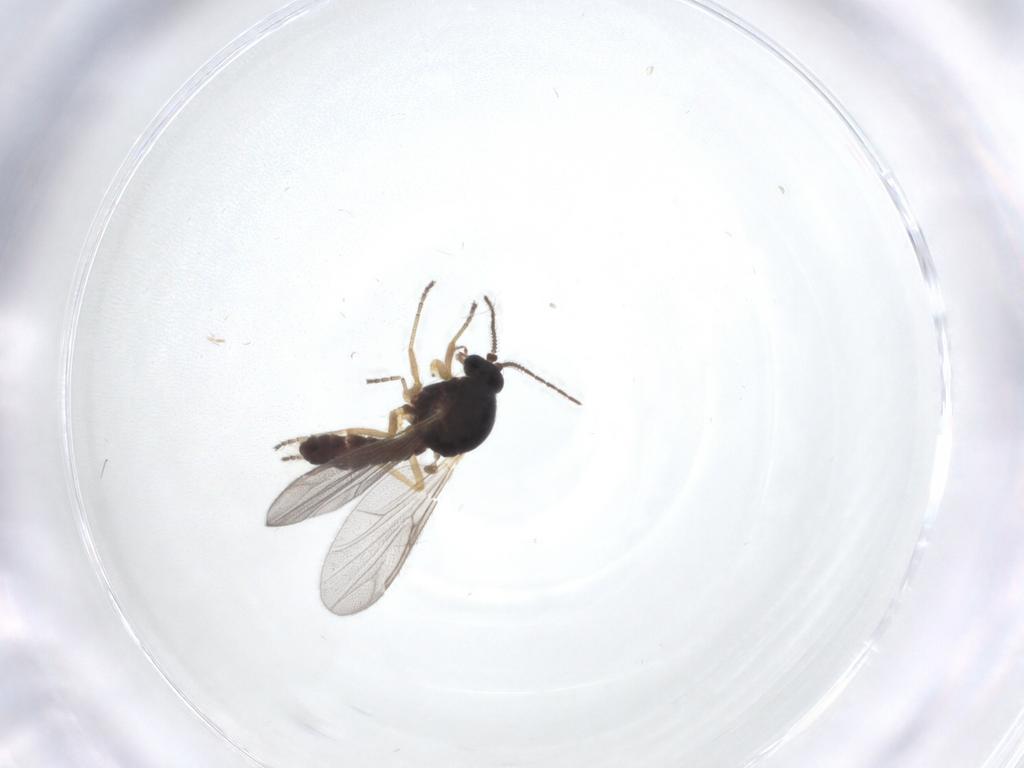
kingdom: Animalia
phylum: Arthropoda
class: Insecta
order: Diptera
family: Ceratopogonidae
